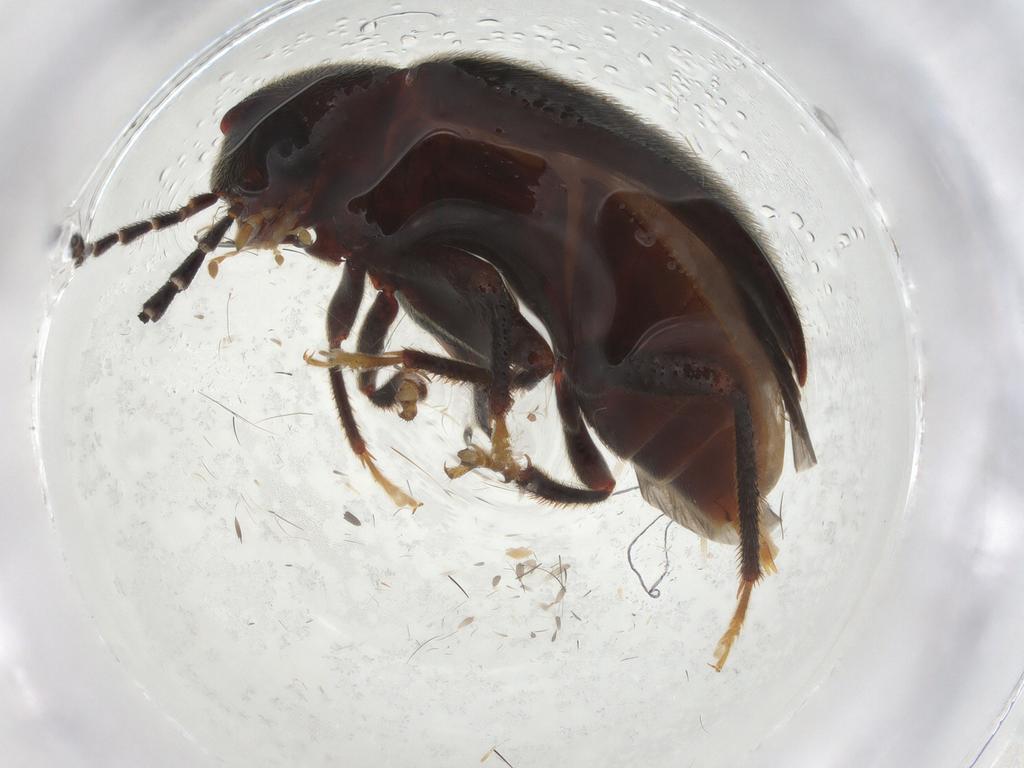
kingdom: Animalia
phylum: Arthropoda
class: Insecta
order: Coleoptera
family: Ptilodactylidae
